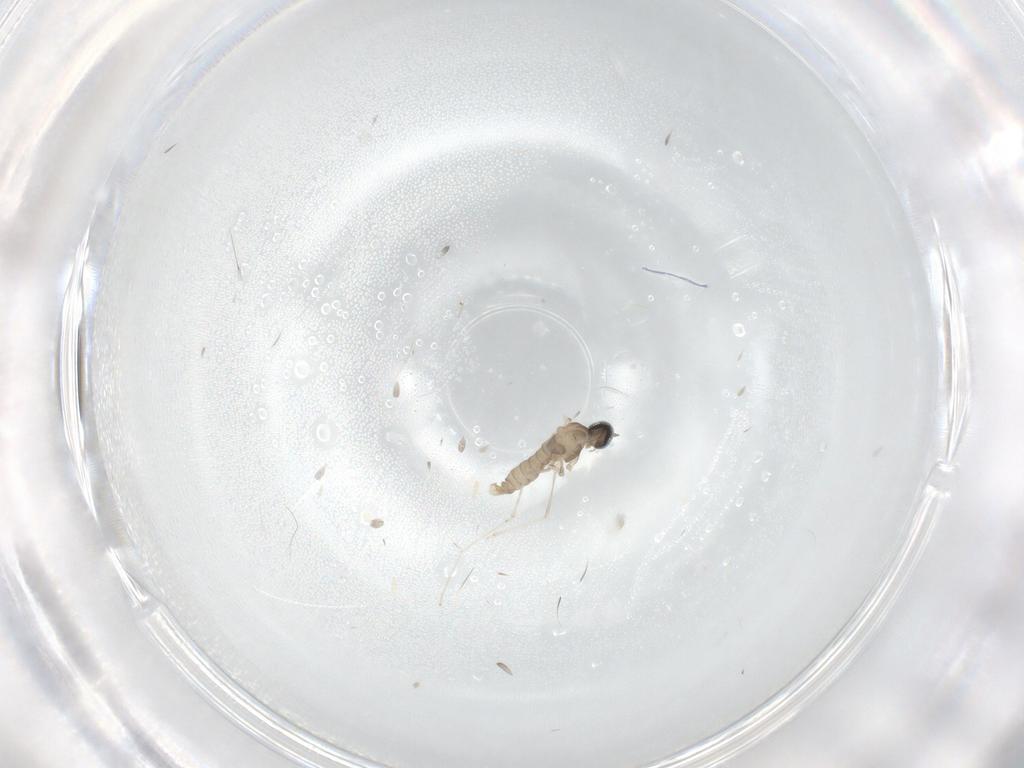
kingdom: Animalia
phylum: Arthropoda
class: Insecta
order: Diptera
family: Cecidomyiidae
